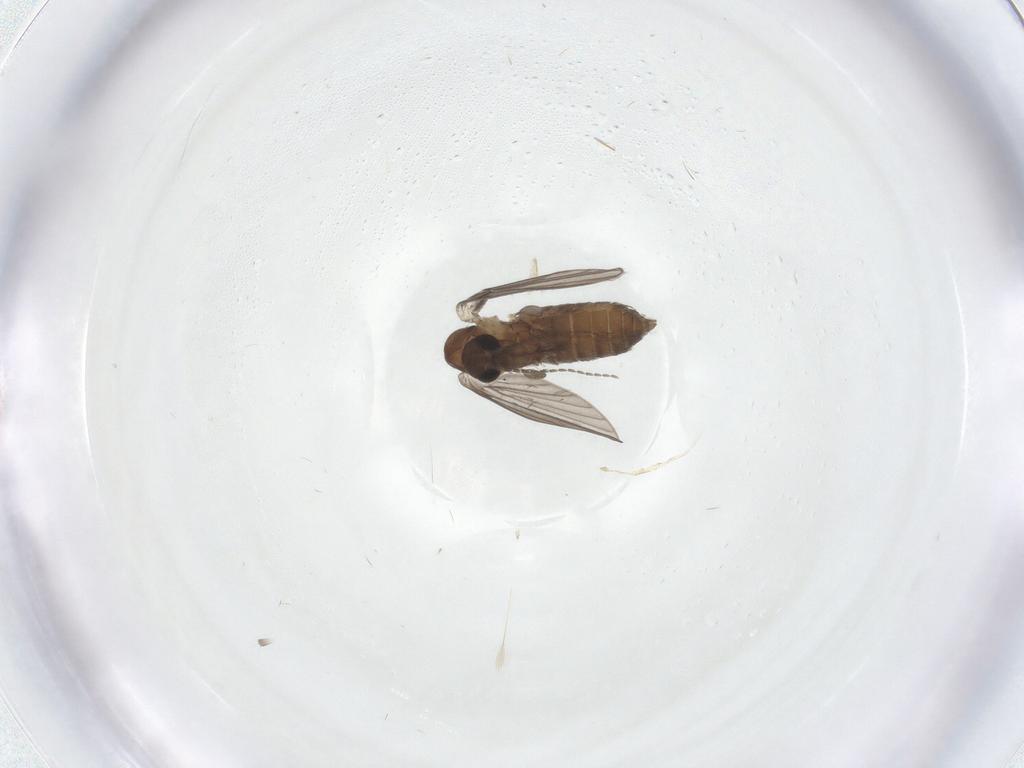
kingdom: Animalia
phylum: Arthropoda
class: Insecta
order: Diptera
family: Psychodidae
